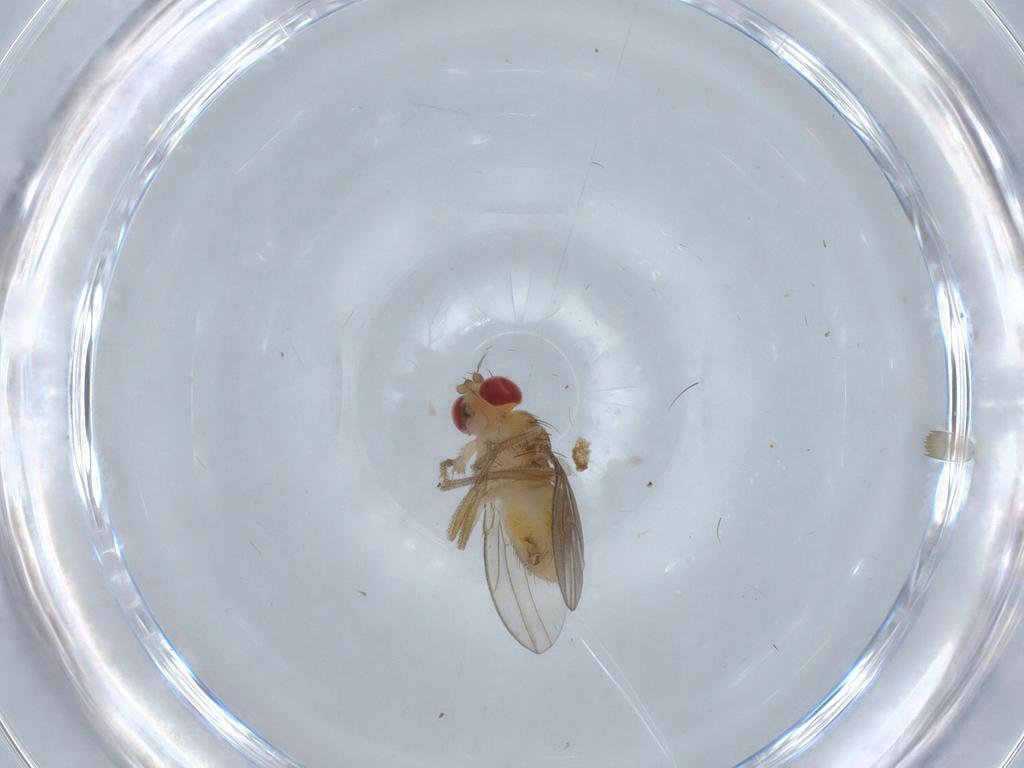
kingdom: Animalia
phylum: Arthropoda
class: Insecta
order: Diptera
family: Drosophilidae
